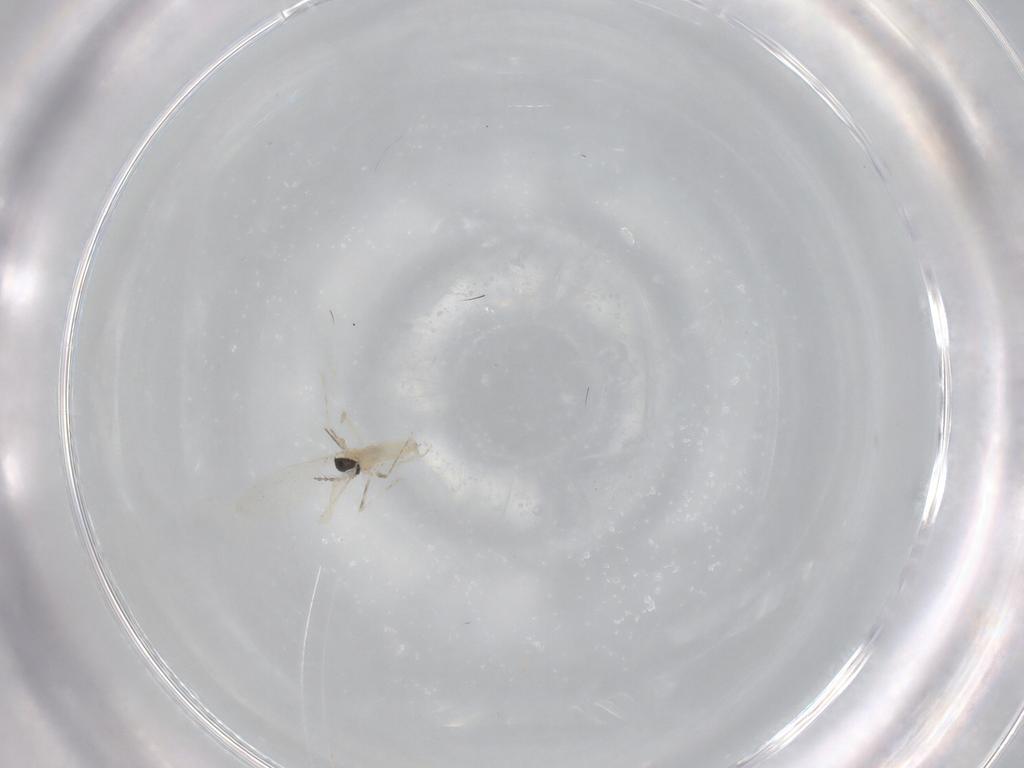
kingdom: Animalia
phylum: Arthropoda
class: Insecta
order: Diptera
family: Cecidomyiidae
